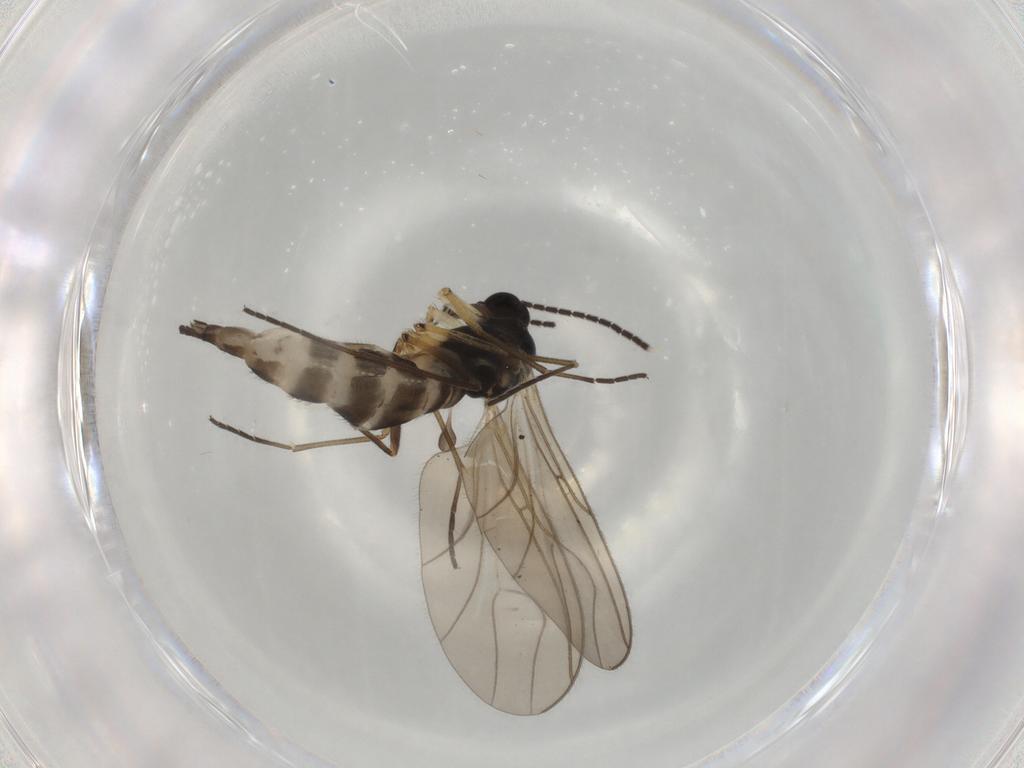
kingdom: Animalia
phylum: Arthropoda
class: Insecta
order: Diptera
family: Sciaridae
